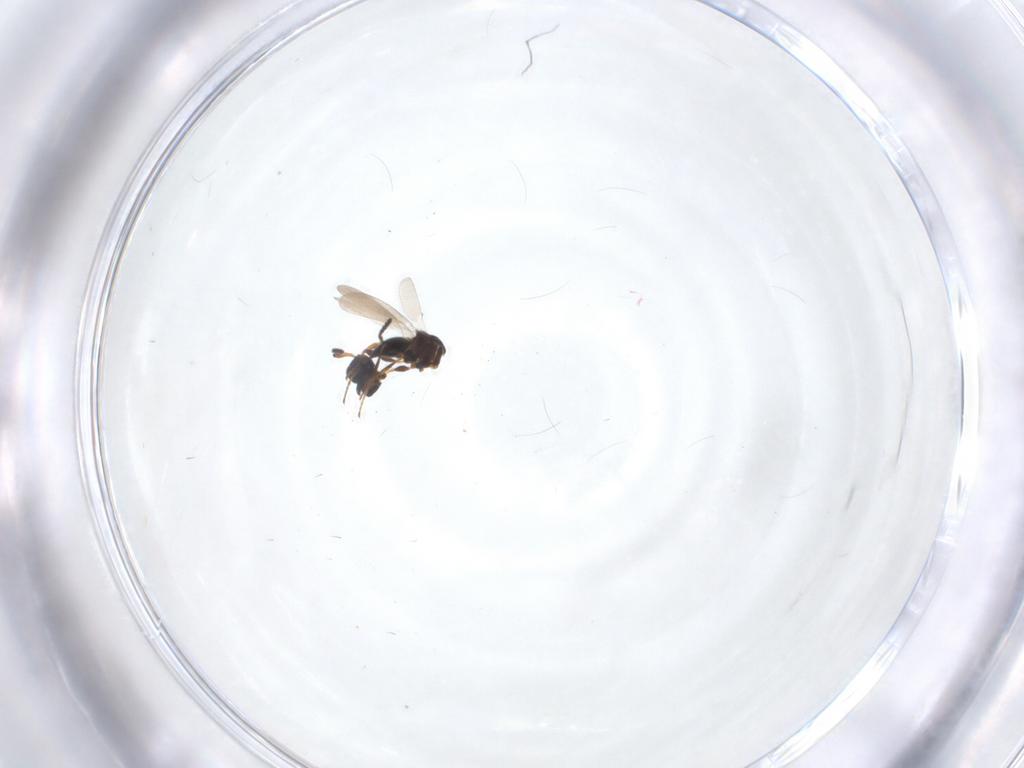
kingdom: Animalia
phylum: Arthropoda
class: Insecta
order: Hymenoptera
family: Platygastridae
